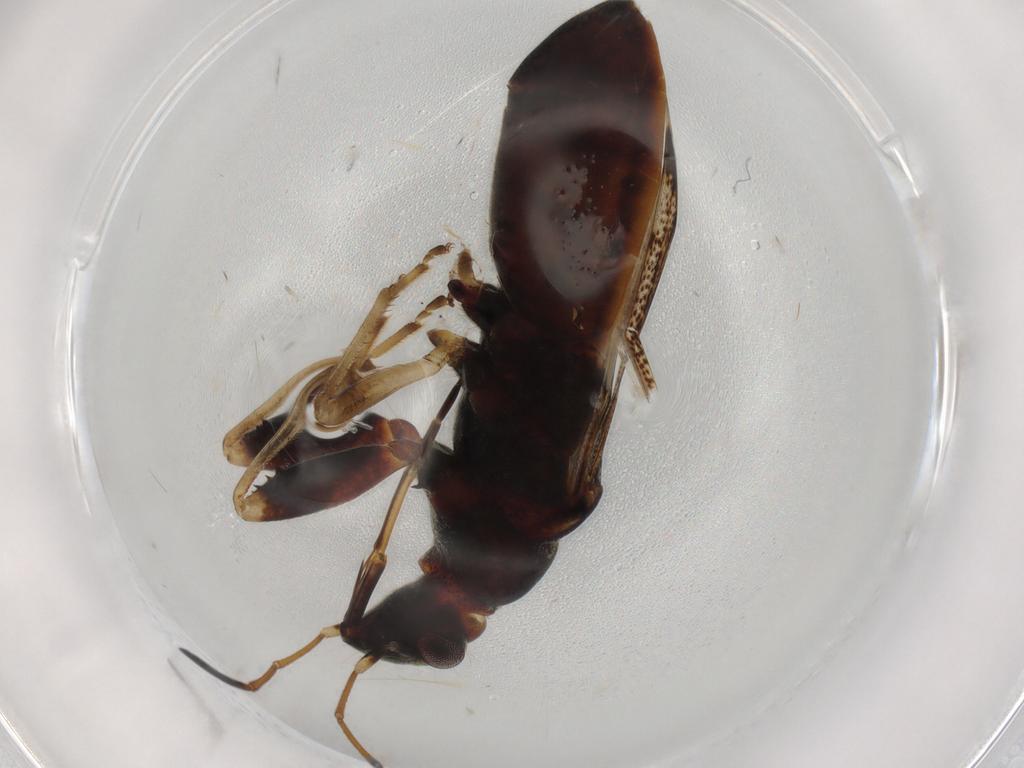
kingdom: Animalia
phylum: Arthropoda
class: Insecta
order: Hemiptera
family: Rhyparochromidae
